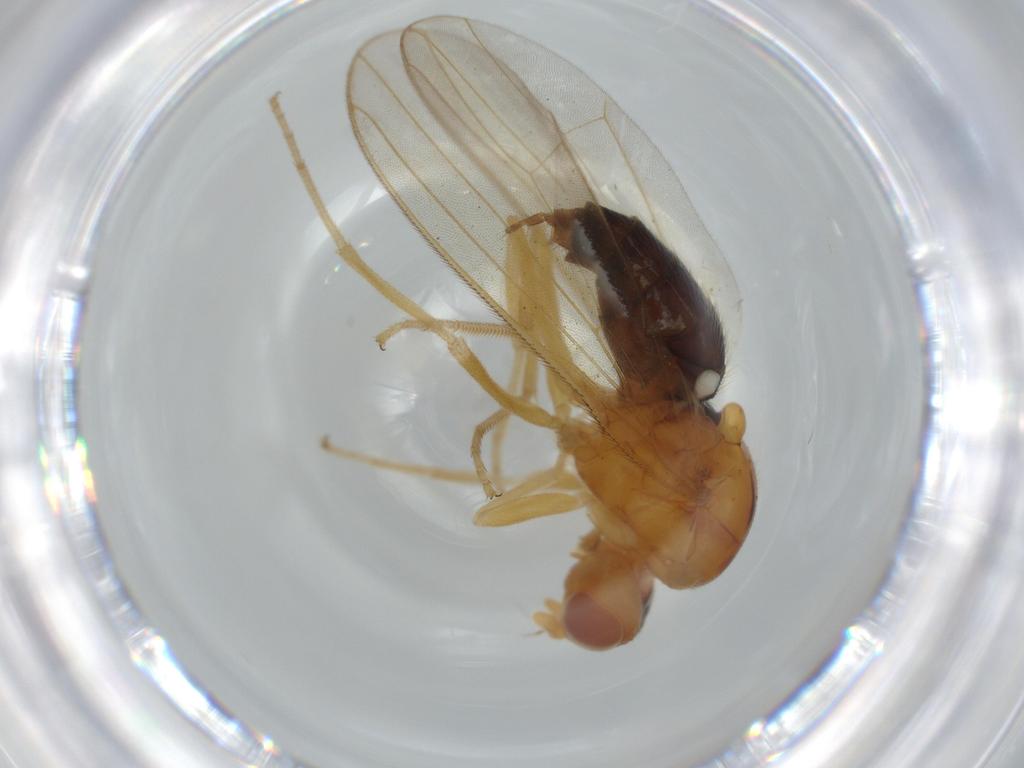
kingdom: Animalia
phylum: Arthropoda
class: Insecta
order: Diptera
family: Psilidae
